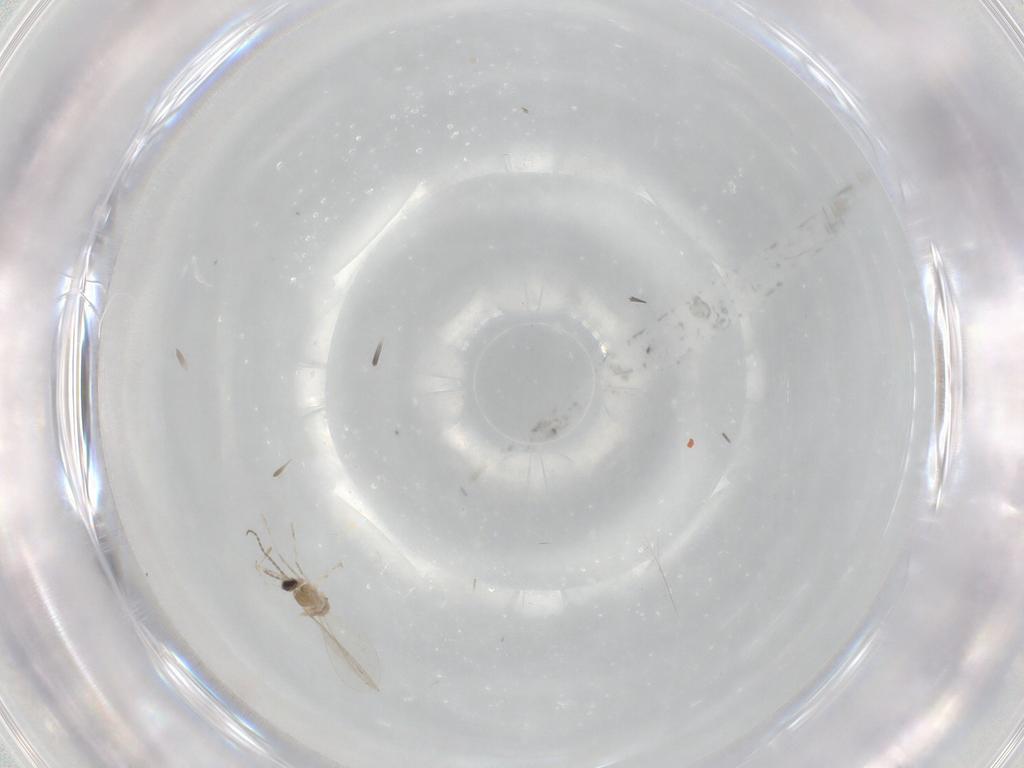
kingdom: Animalia
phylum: Arthropoda
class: Insecta
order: Diptera
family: Cecidomyiidae
